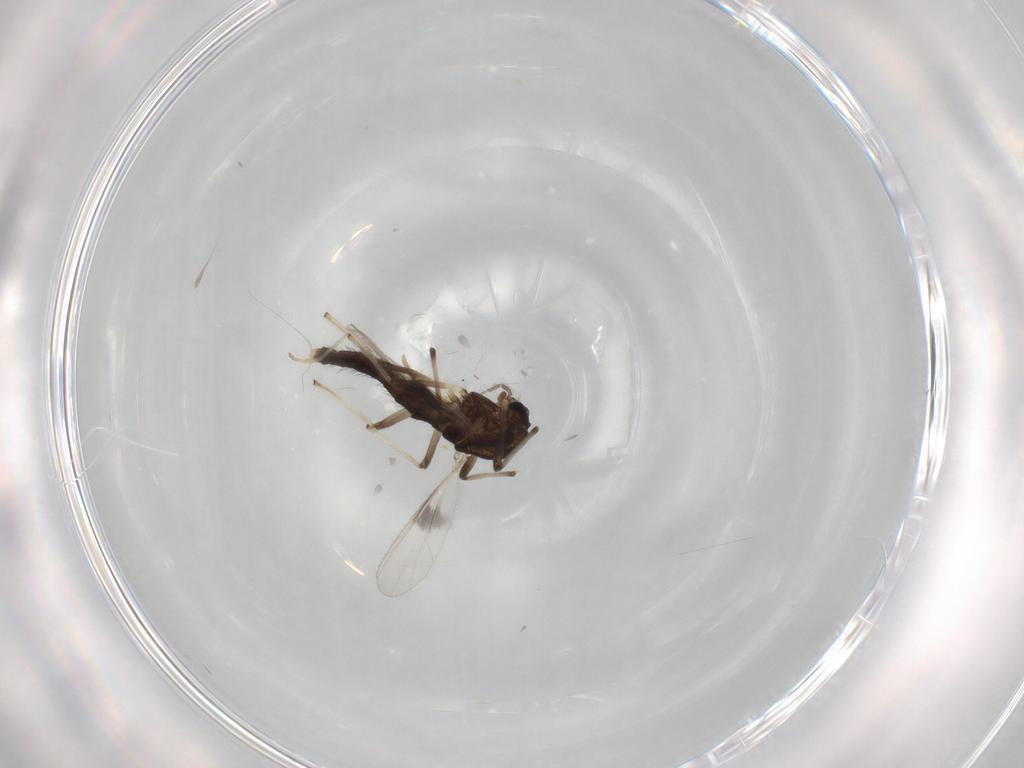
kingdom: Animalia
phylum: Arthropoda
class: Insecta
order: Diptera
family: Chironomidae
